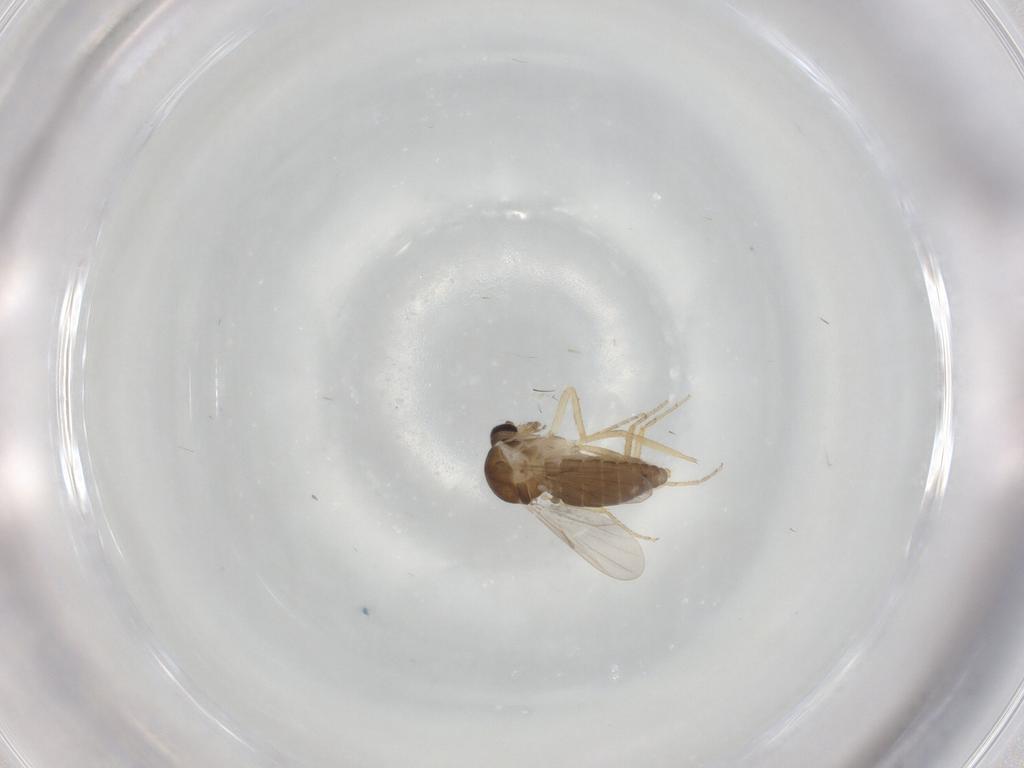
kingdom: Animalia
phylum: Arthropoda
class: Insecta
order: Diptera
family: Ceratopogonidae
